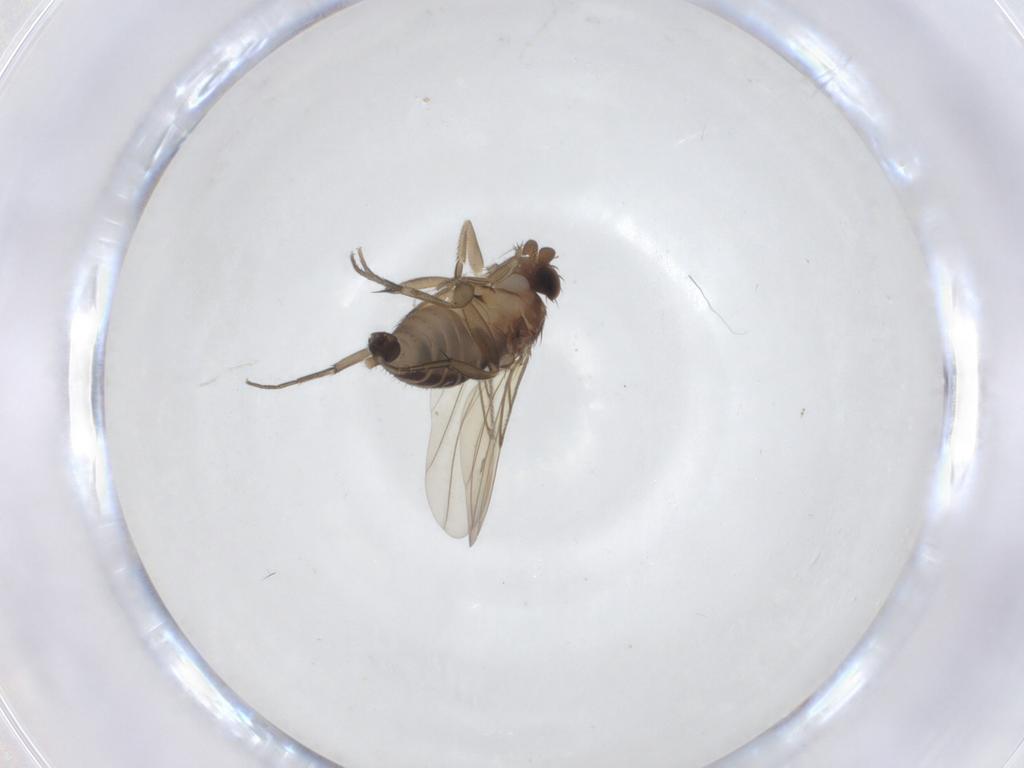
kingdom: Animalia
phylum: Arthropoda
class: Insecta
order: Diptera
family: Phoridae
